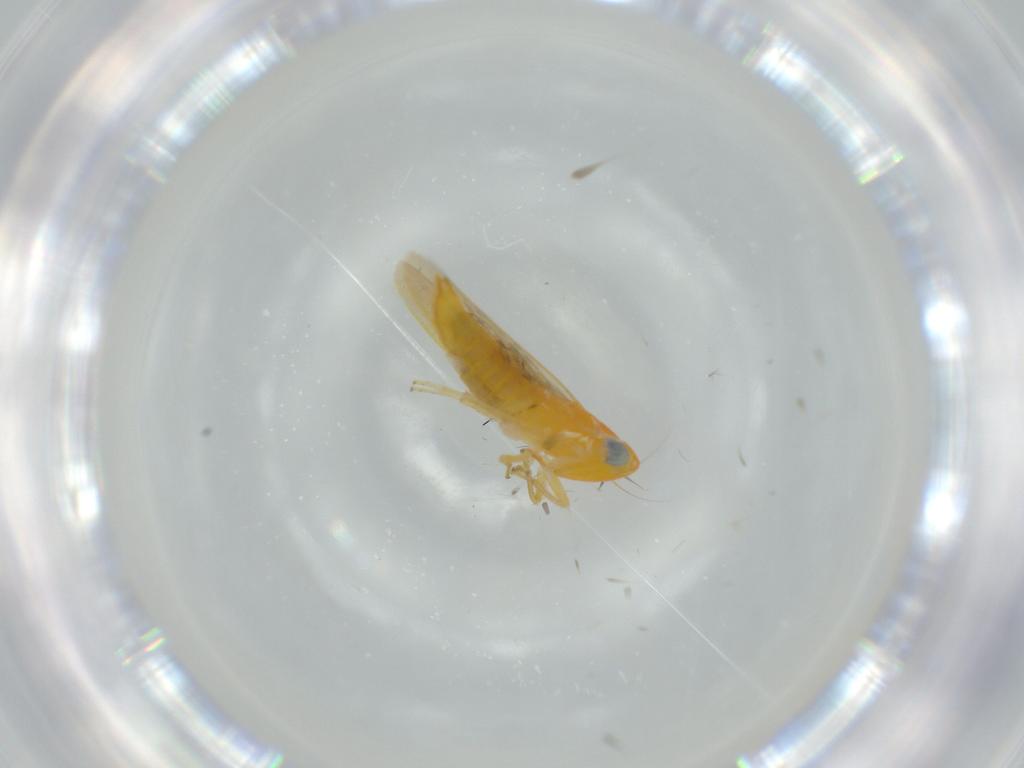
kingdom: Animalia
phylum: Arthropoda
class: Insecta
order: Hemiptera
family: Cicadellidae
